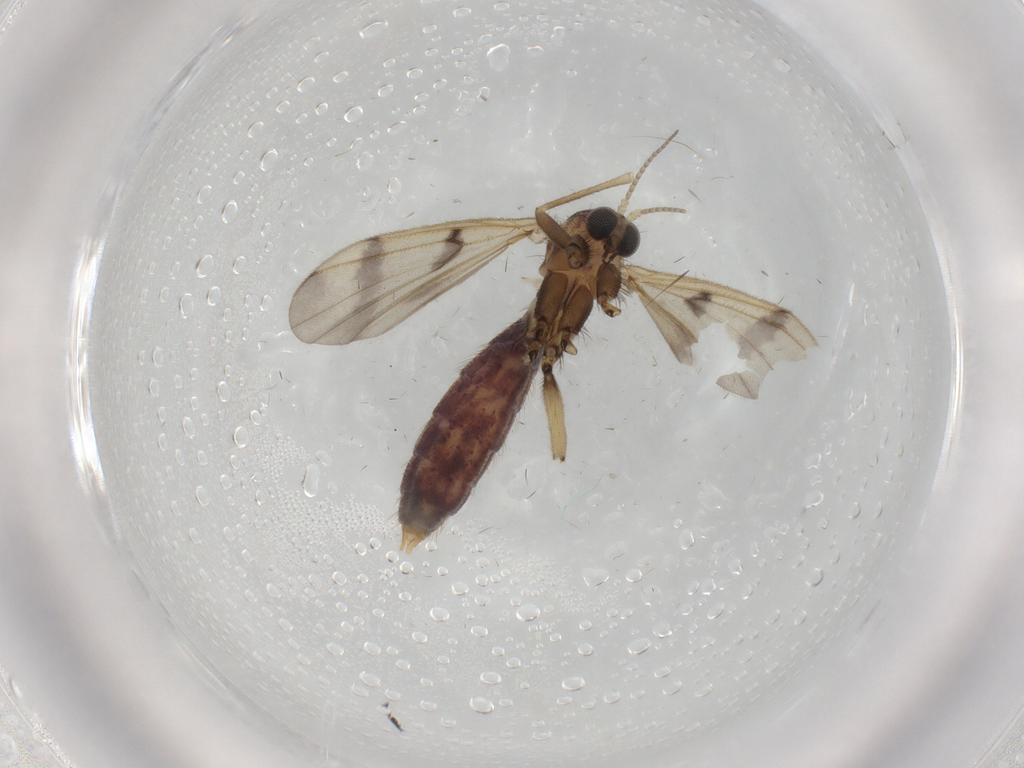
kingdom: Animalia
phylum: Arthropoda
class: Insecta
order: Diptera
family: Mycetophilidae
